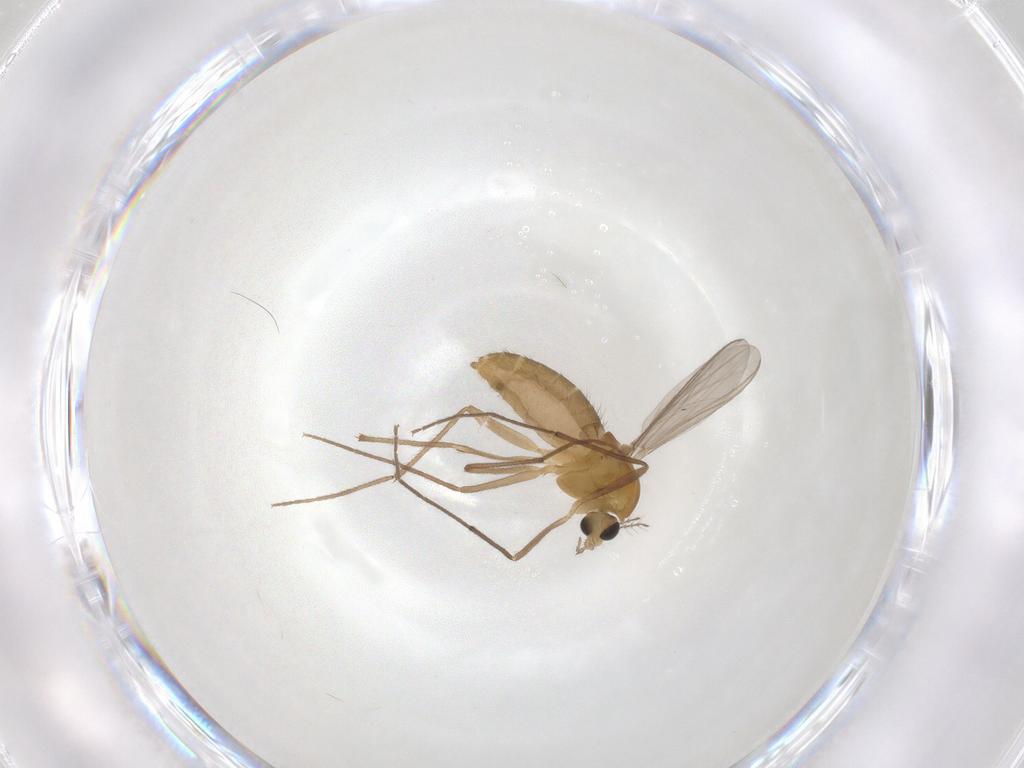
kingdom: Animalia
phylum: Arthropoda
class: Insecta
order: Diptera
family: Chironomidae
